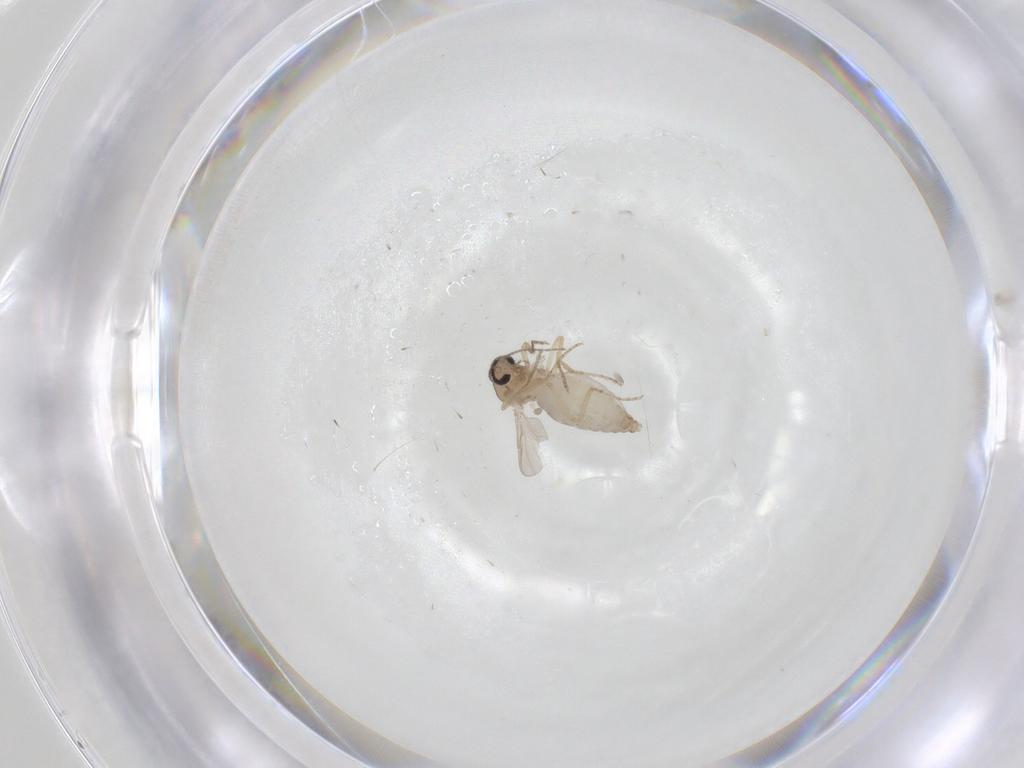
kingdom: Animalia
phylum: Arthropoda
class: Insecta
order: Diptera
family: Ceratopogonidae
